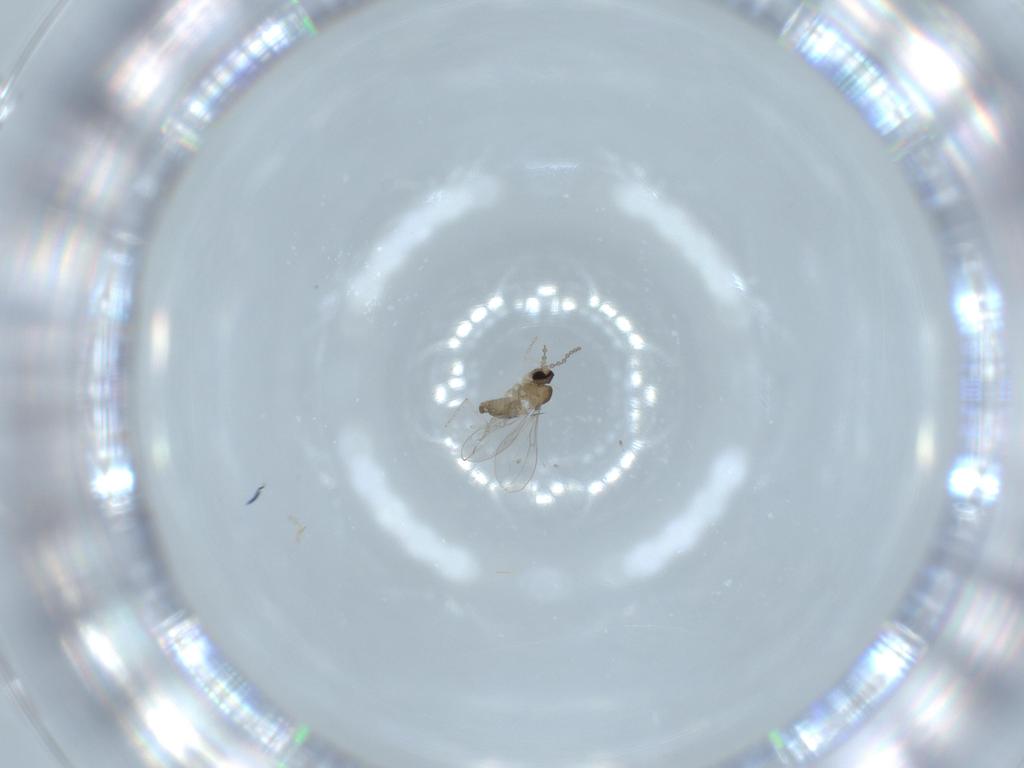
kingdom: Animalia
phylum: Arthropoda
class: Insecta
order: Diptera
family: Cecidomyiidae
